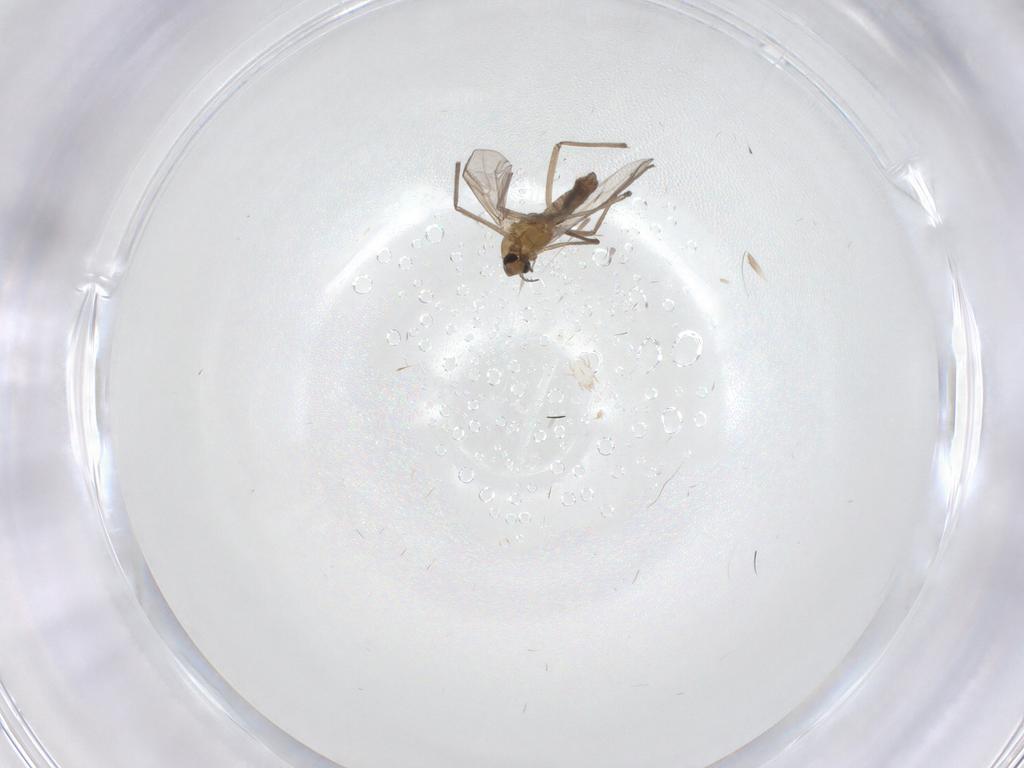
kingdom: Animalia
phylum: Arthropoda
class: Insecta
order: Diptera
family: Chironomidae
